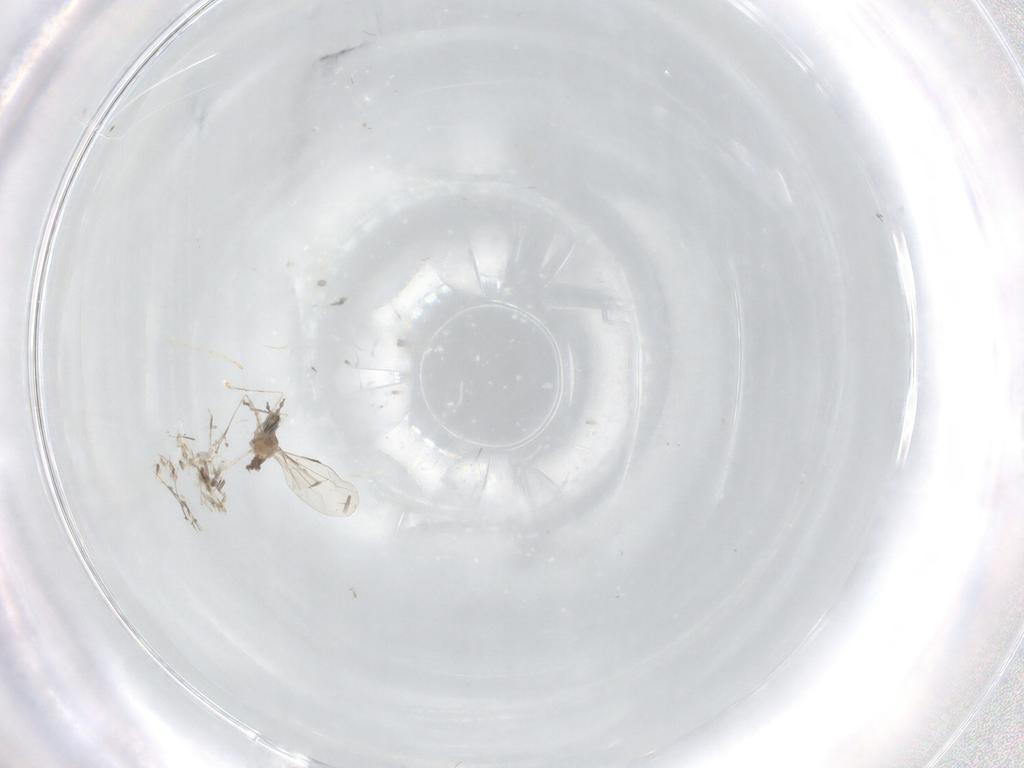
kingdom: Animalia
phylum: Arthropoda
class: Insecta
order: Diptera
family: Cecidomyiidae
